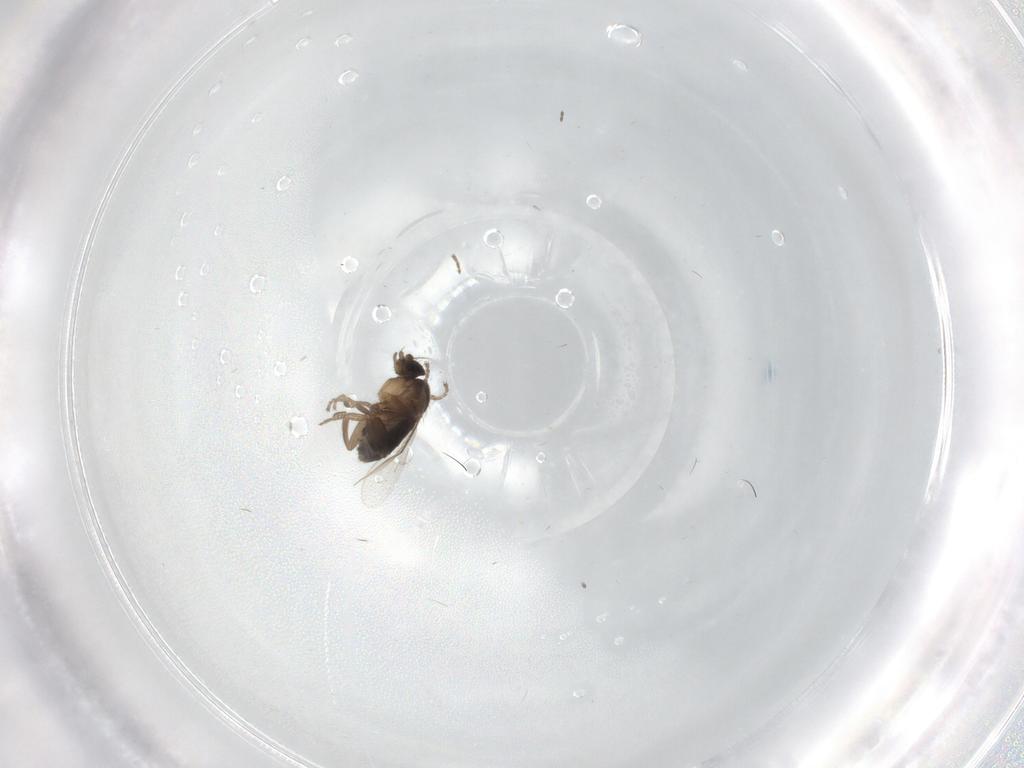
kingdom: Animalia
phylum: Arthropoda
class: Insecta
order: Diptera
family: Phoridae
